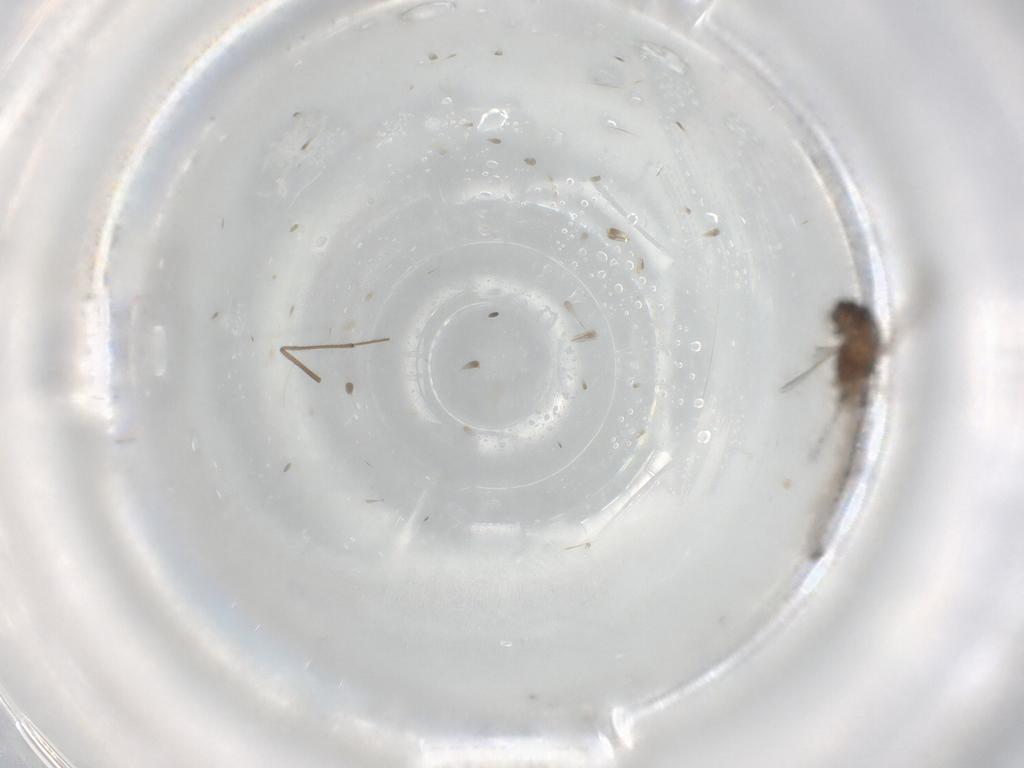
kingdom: Animalia
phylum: Arthropoda
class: Insecta
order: Diptera
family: Chironomidae
